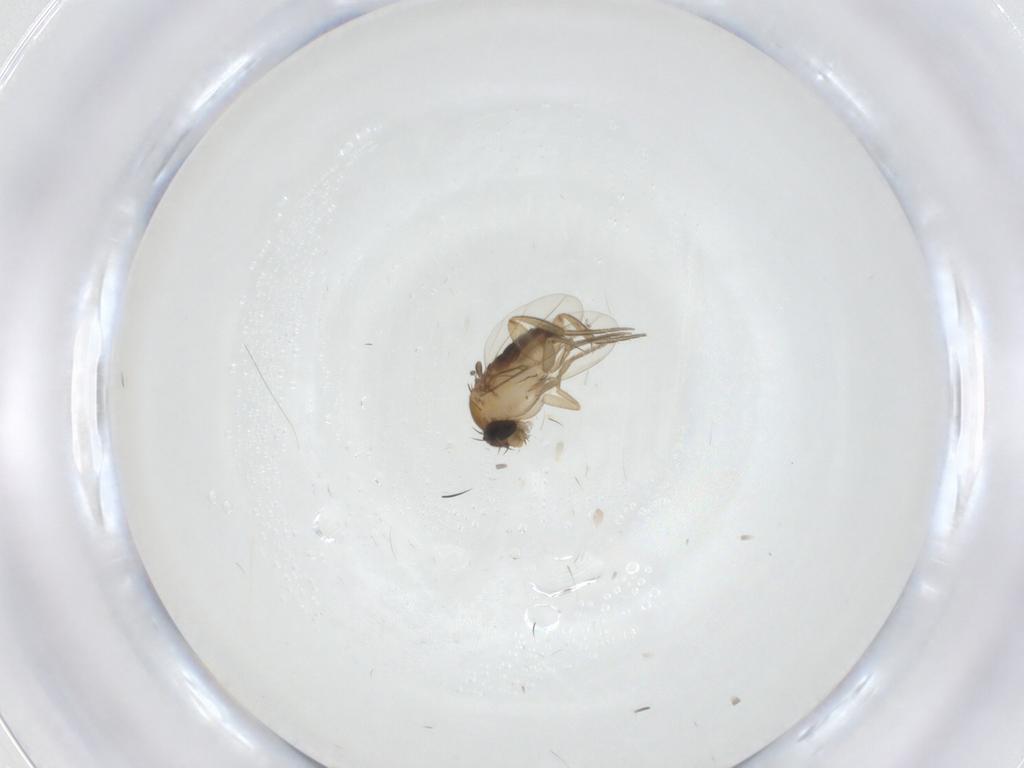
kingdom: Animalia
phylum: Arthropoda
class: Insecta
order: Diptera
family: Phoridae
